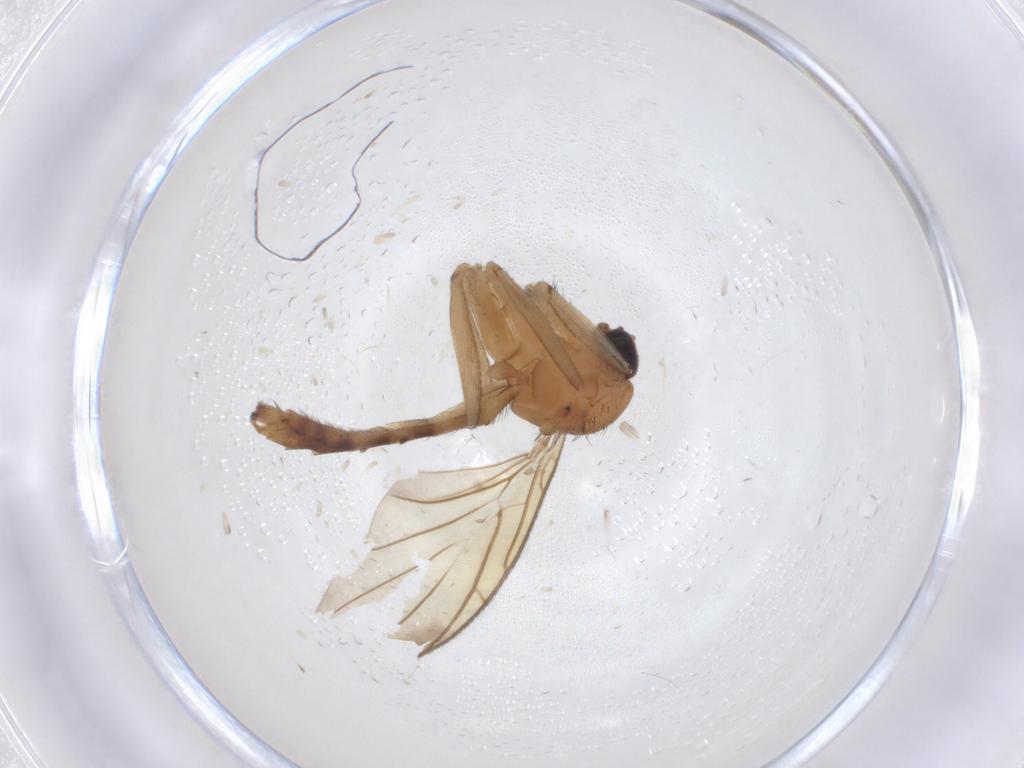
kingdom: Animalia
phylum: Arthropoda
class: Insecta
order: Diptera
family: Keroplatidae
